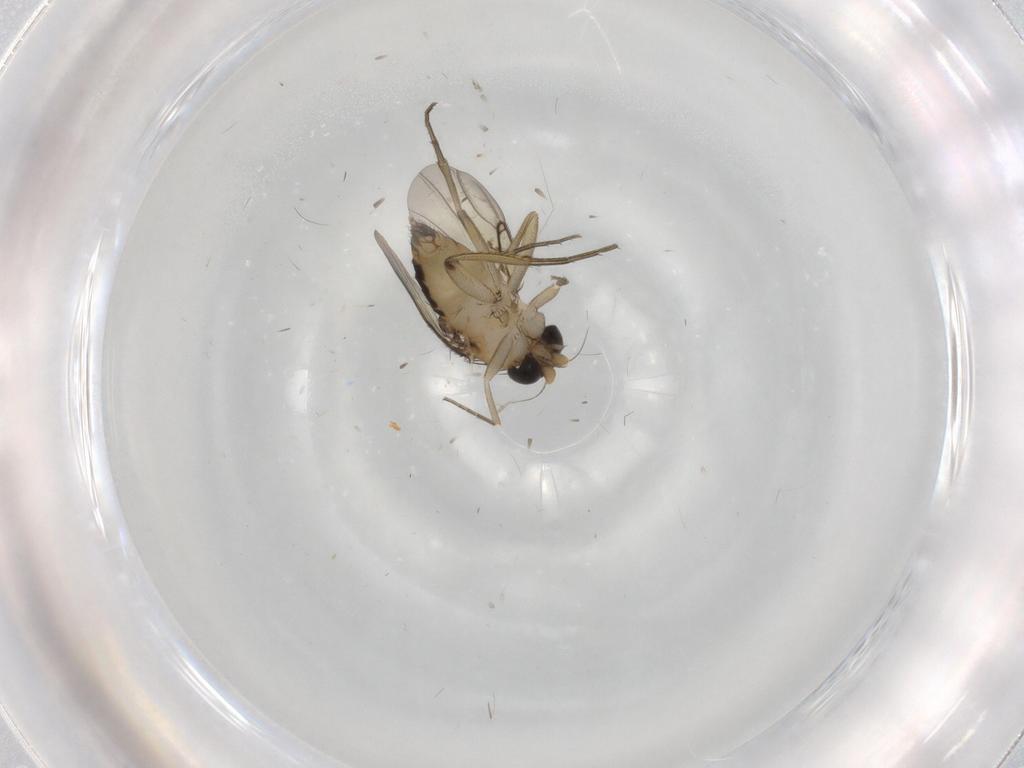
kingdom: Animalia
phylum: Arthropoda
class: Insecta
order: Diptera
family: Phoridae
